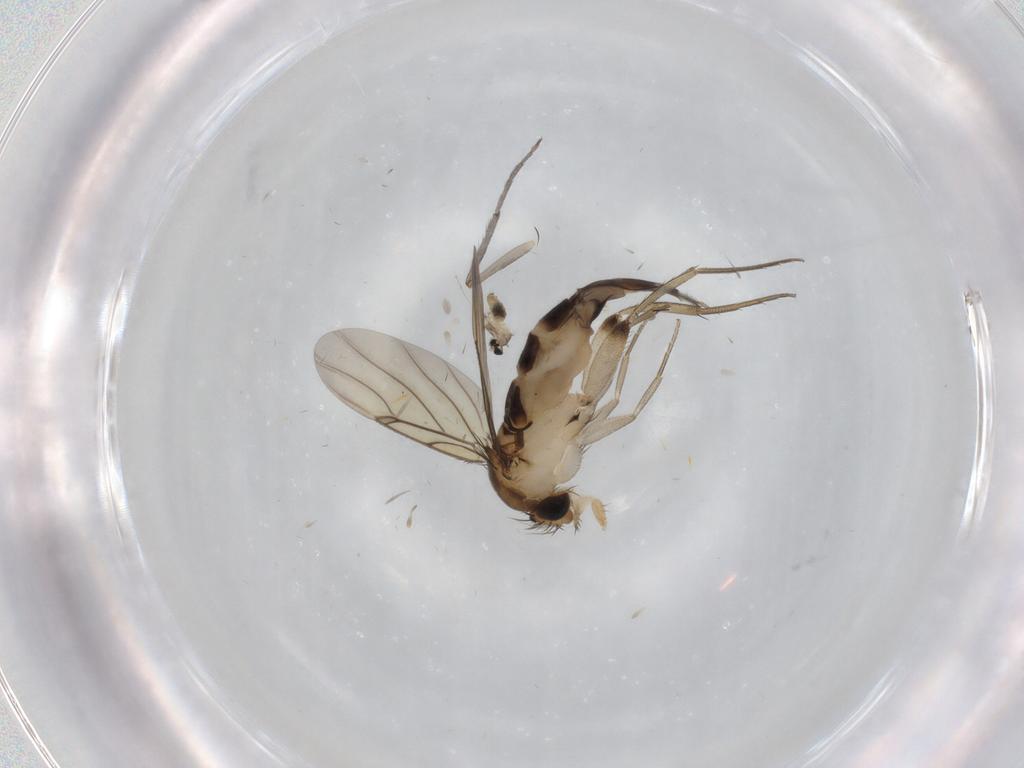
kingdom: Animalia
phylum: Arthropoda
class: Insecta
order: Diptera
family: Phoridae
